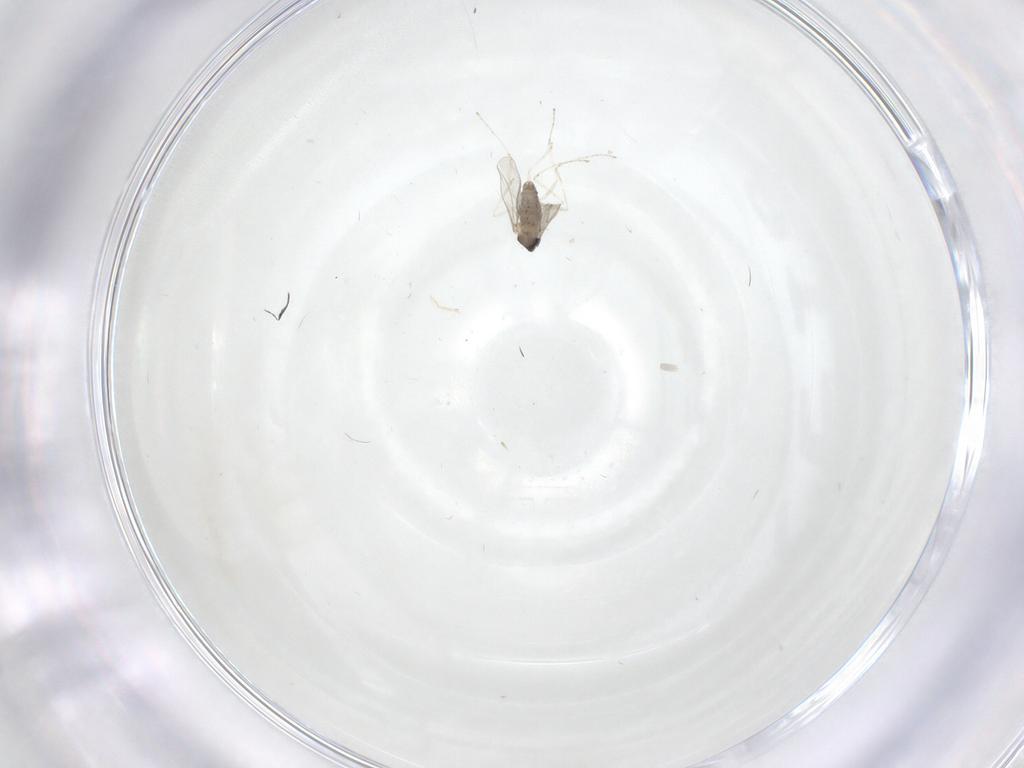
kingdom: Animalia
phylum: Arthropoda
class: Insecta
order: Diptera
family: Cecidomyiidae
